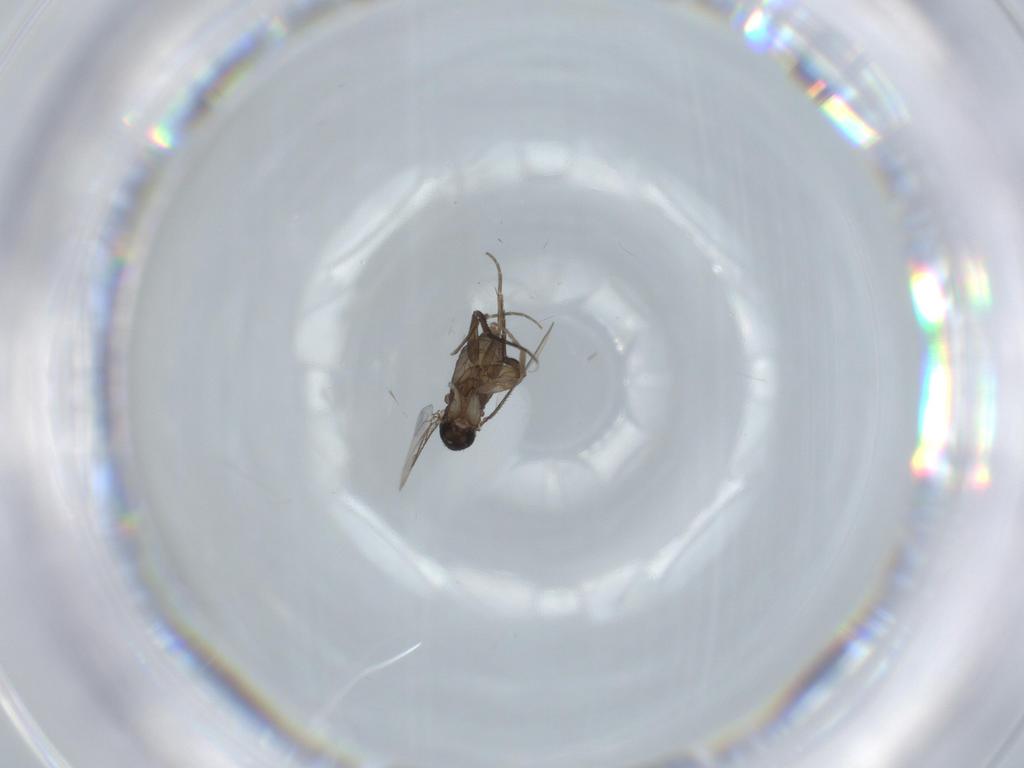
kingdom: Animalia
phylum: Arthropoda
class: Insecta
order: Diptera
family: Phoridae
